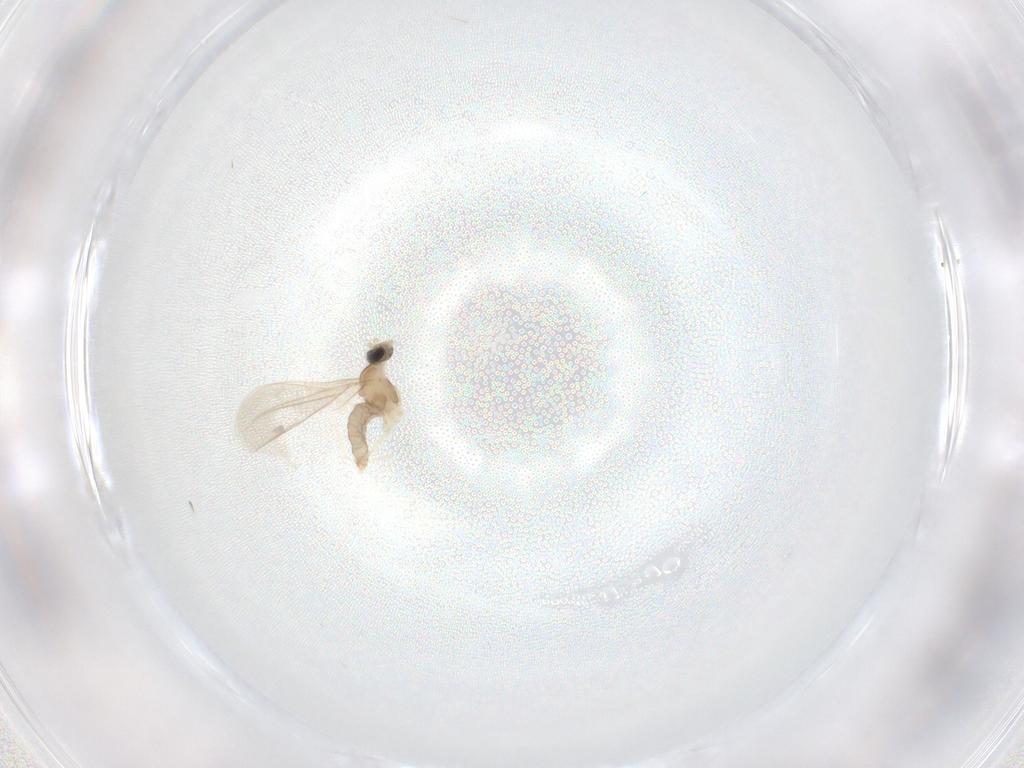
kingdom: Animalia
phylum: Arthropoda
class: Insecta
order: Diptera
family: Cecidomyiidae
